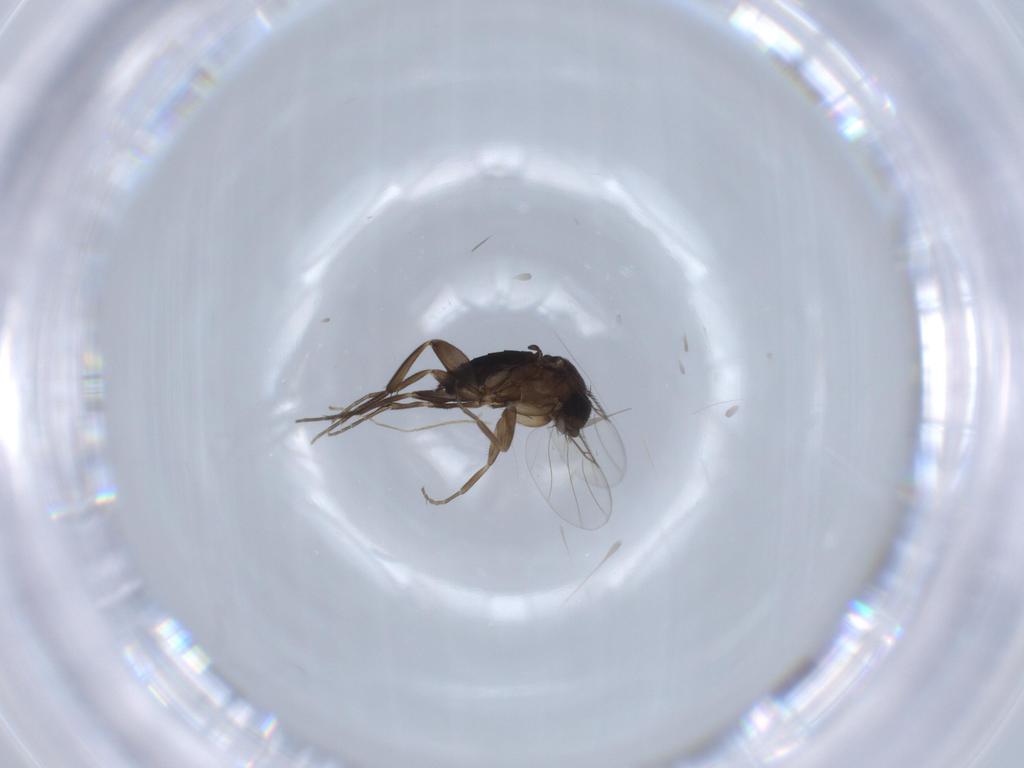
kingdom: Animalia
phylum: Arthropoda
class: Insecta
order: Diptera
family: Phoridae
